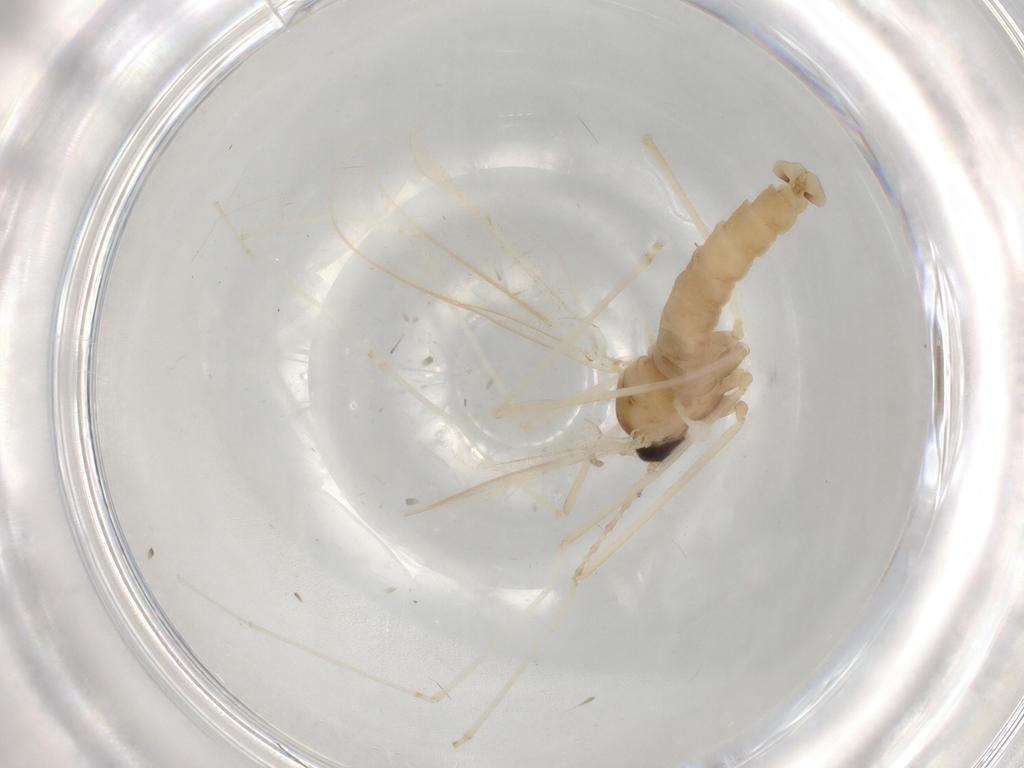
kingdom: Animalia
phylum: Arthropoda
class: Insecta
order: Diptera
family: Cecidomyiidae
